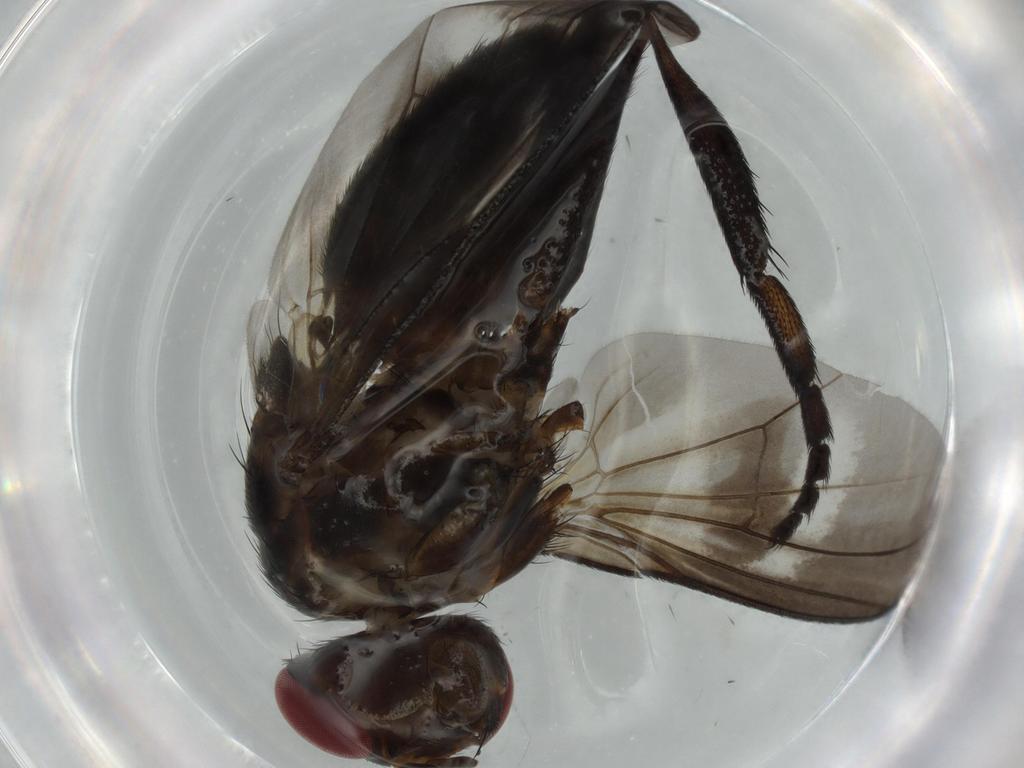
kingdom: Animalia
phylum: Arthropoda
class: Insecta
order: Diptera
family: Calliphoridae
